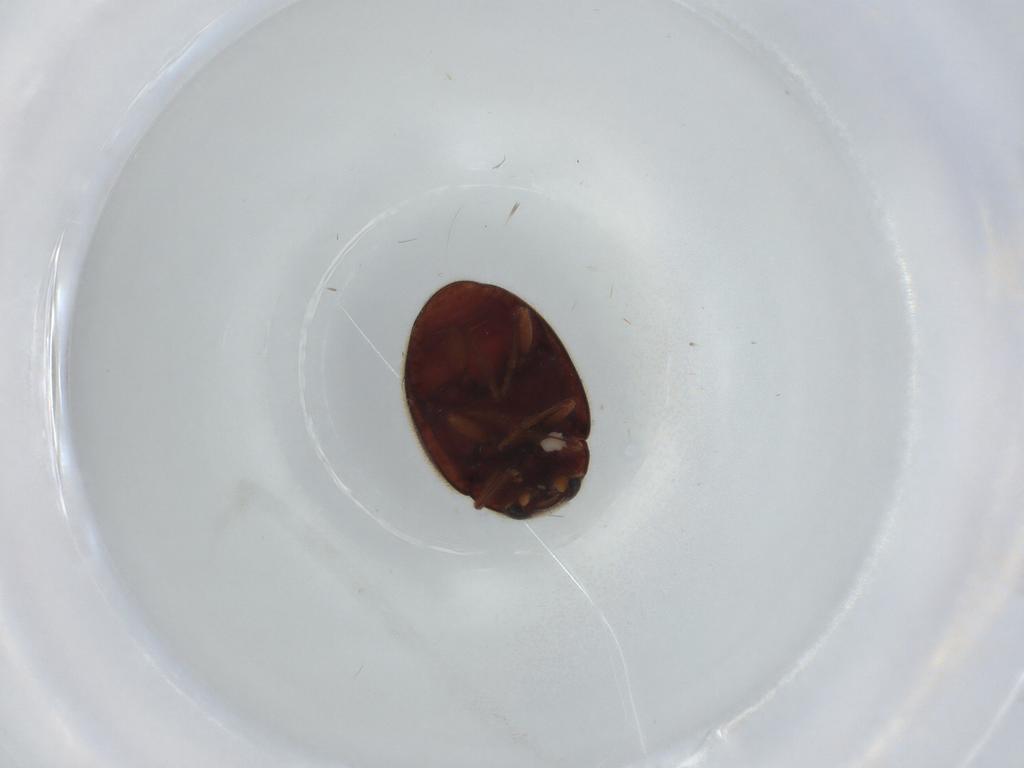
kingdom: Animalia
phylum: Arthropoda
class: Insecta
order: Coleoptera
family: Coccinellidae
